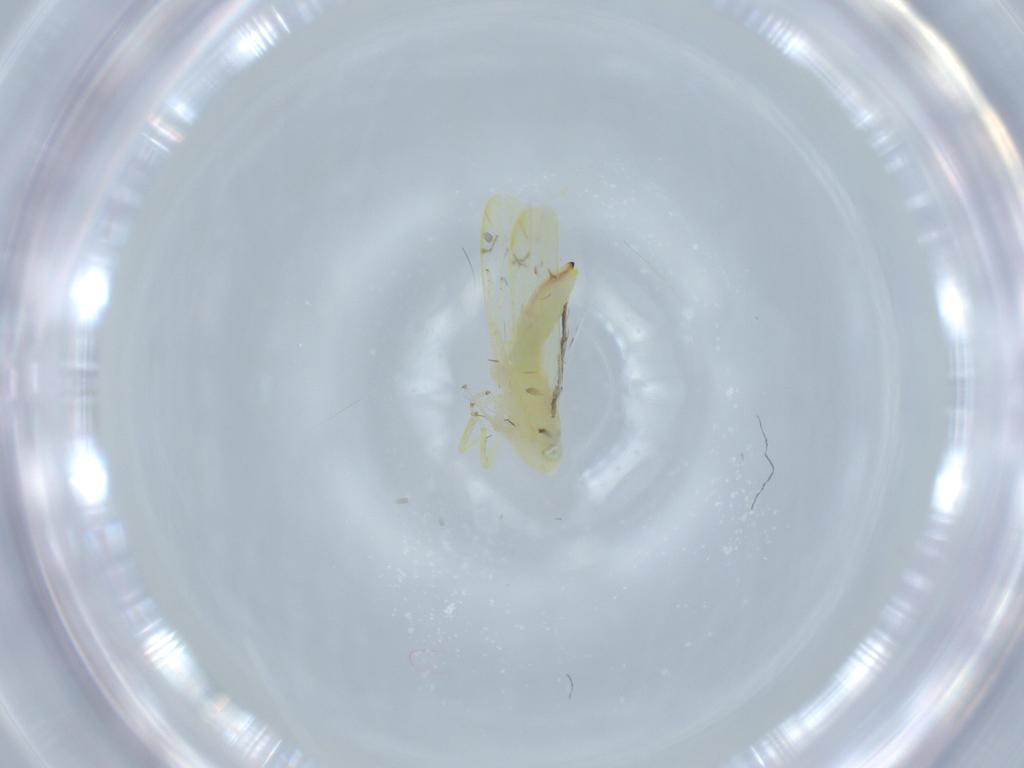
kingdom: Animalia
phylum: Arthropoda
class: Insecta
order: Hemiptera
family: Cicadellidae
